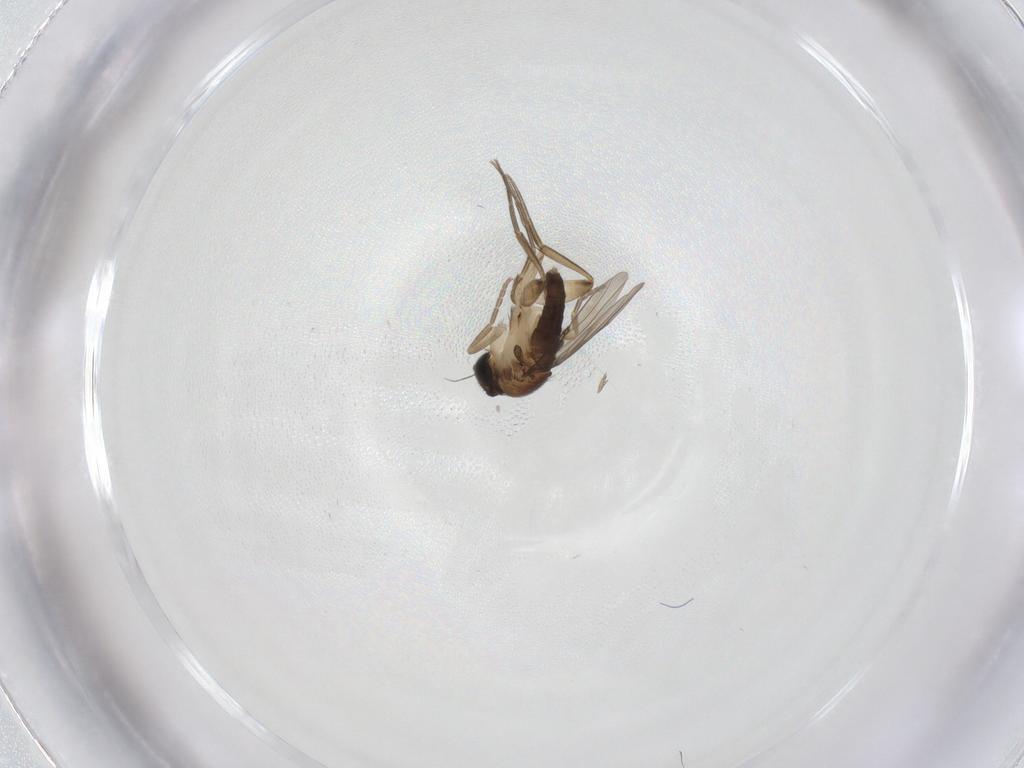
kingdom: Animalia
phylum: Arthropoda
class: Insecta
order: Diptera
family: Phoridae
